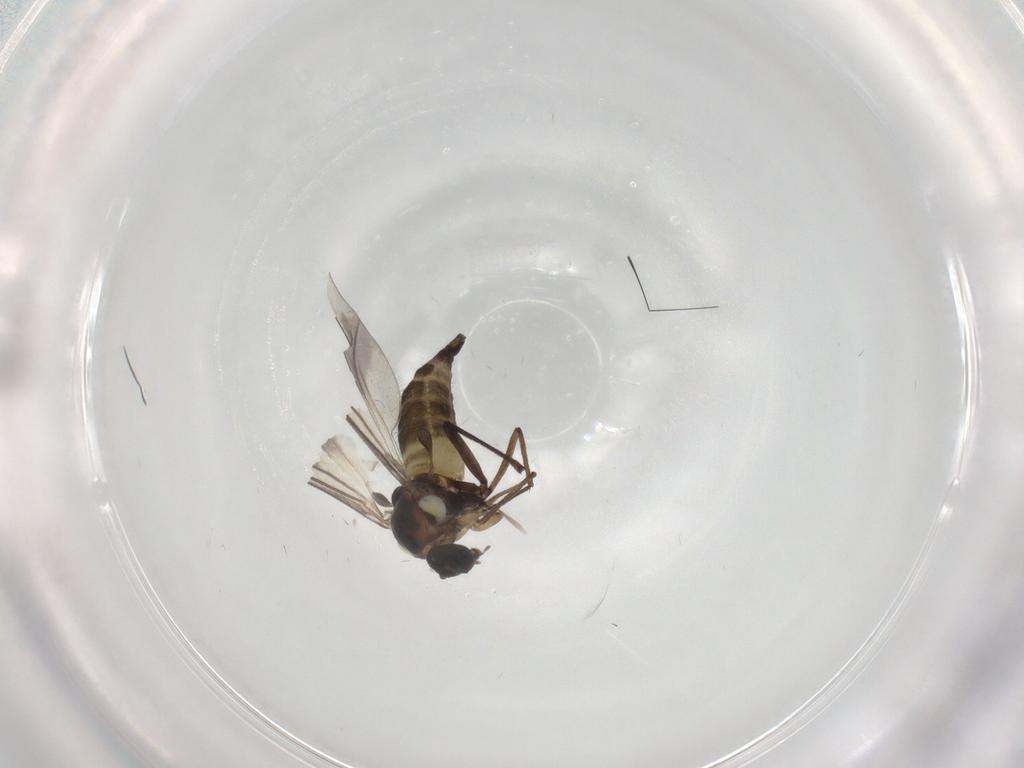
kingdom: Animalia
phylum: Arthropoda
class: Insecta
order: Diptera
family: Sciaridae
